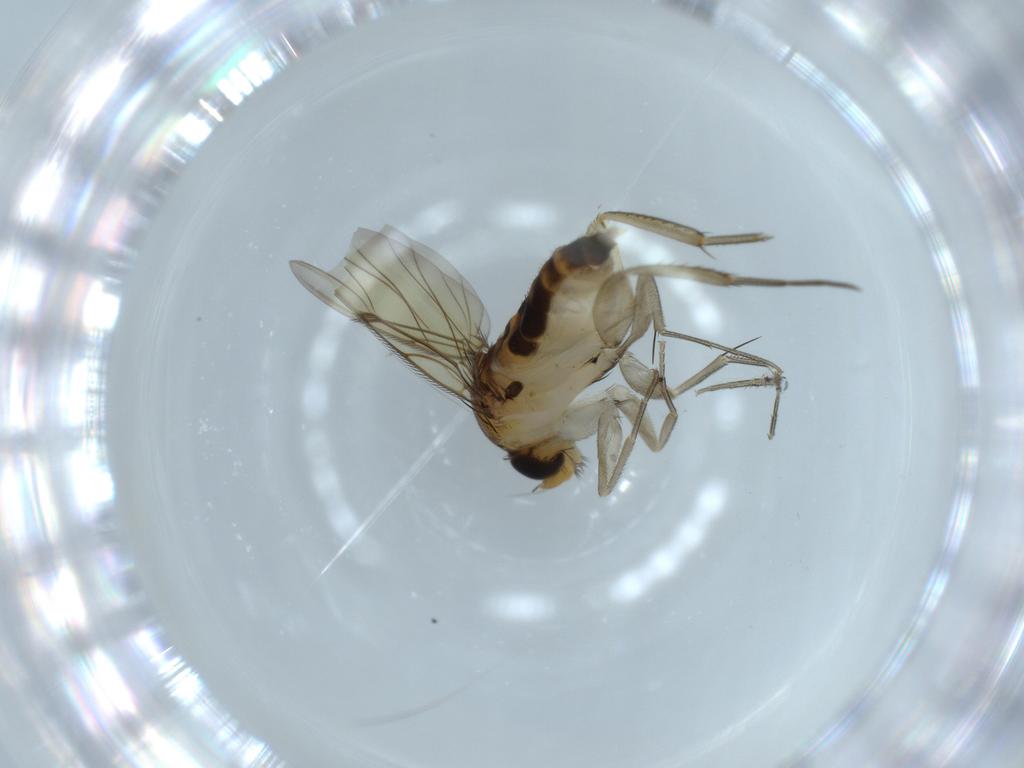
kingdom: Animalia
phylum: Arthropoda
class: Insecta
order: Diptera
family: Phoridae
